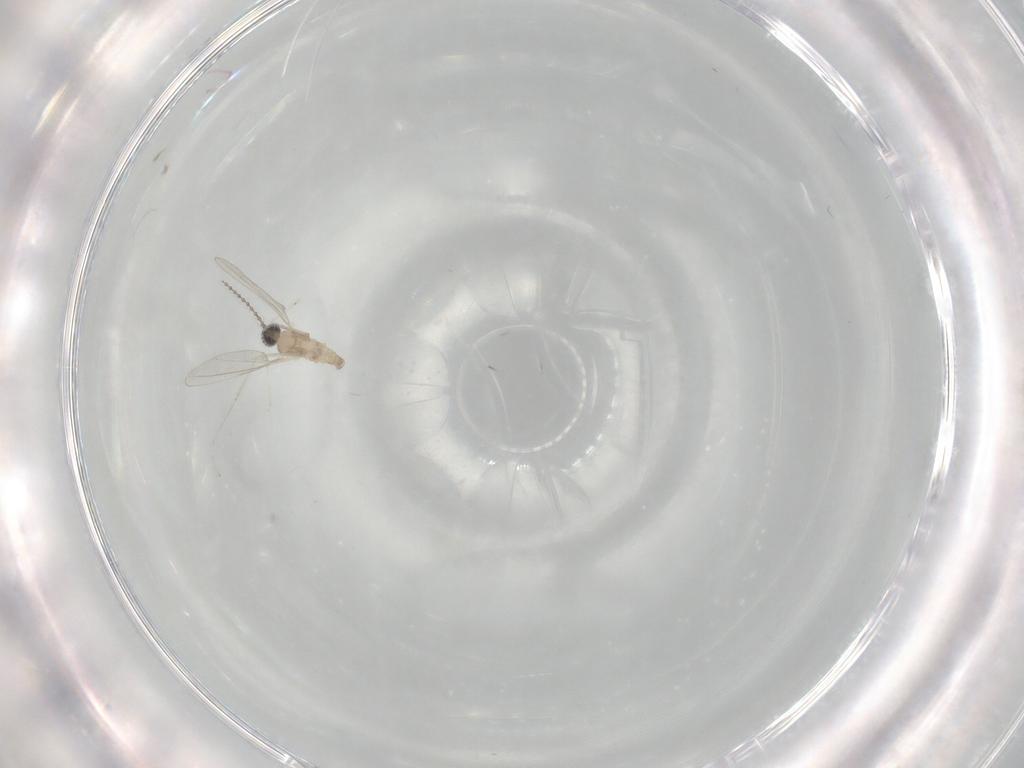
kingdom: Animalia
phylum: Arthropoda
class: Insecta
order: Diptera
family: Cecidomyiidae
